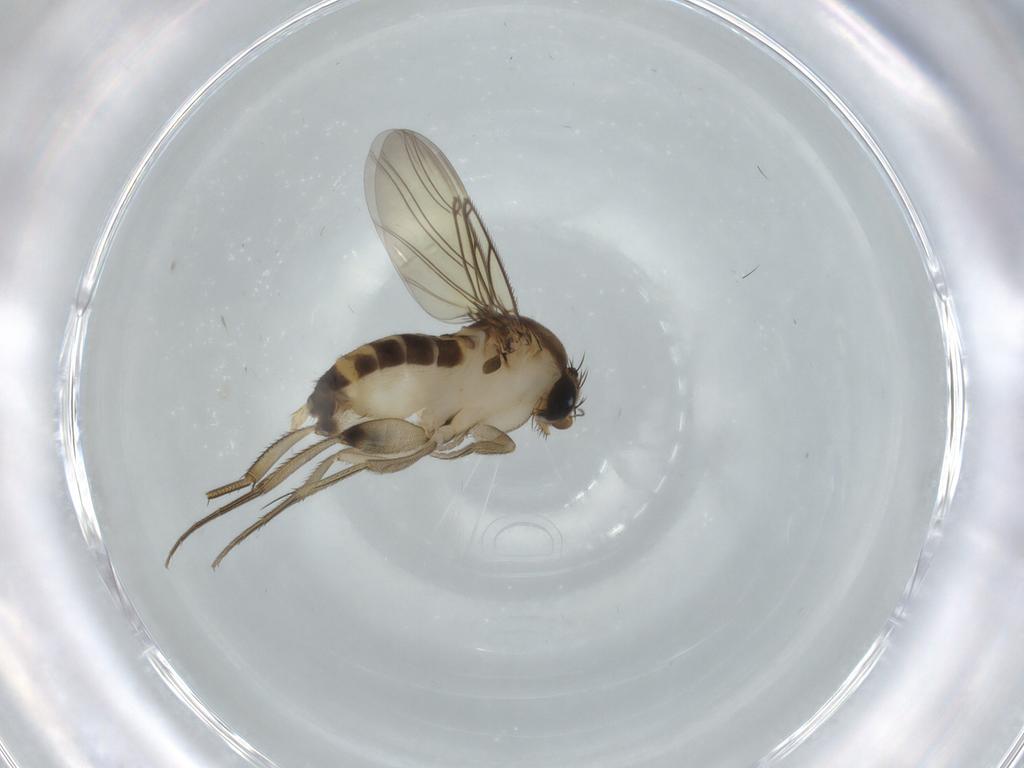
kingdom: Animalia
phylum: Arthropoda
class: Insecta
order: Diptera
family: Phoridae
